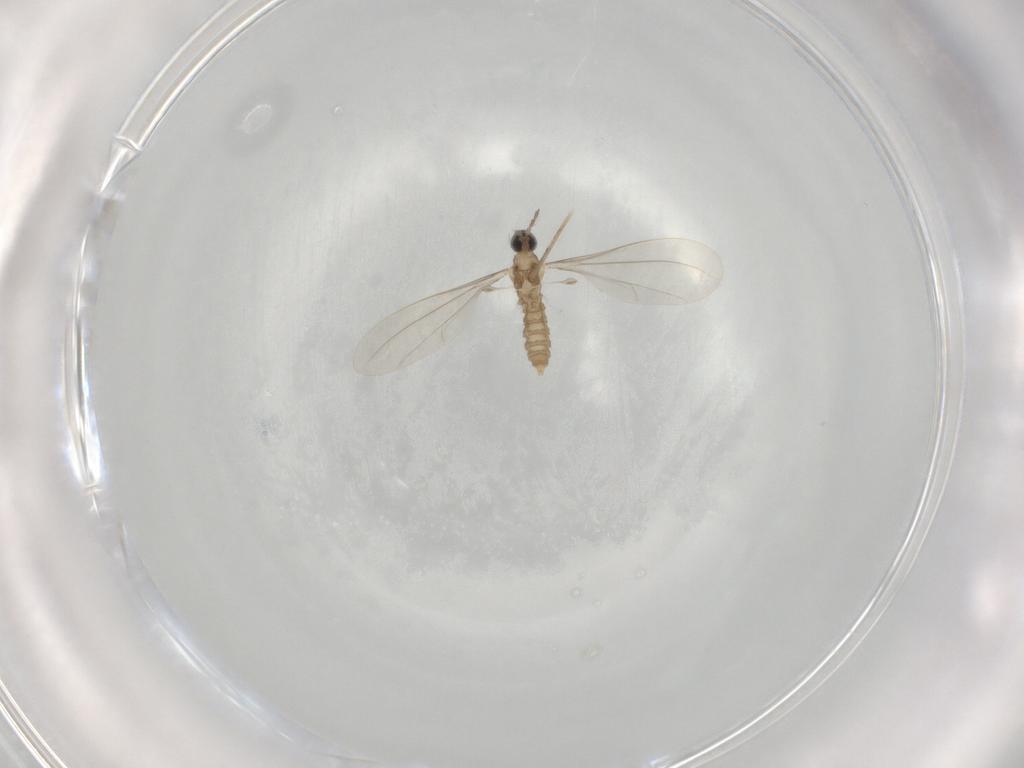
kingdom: Animalia
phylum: Arthropoda
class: Insecta
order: Diptera
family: Cecidomyiidae
